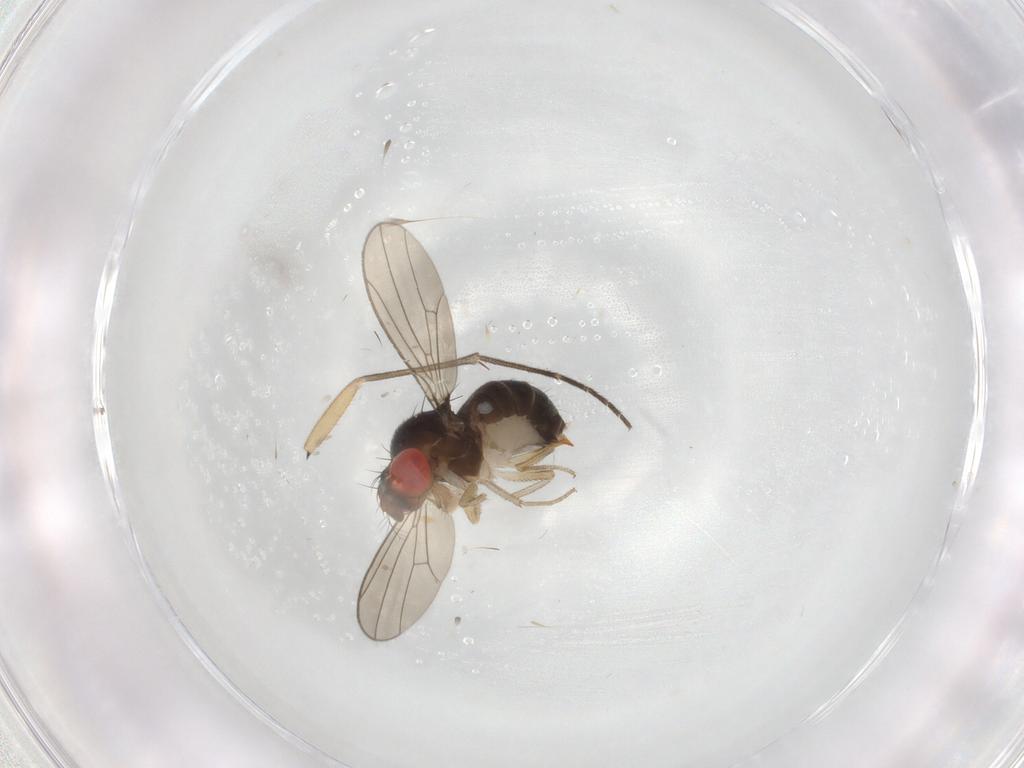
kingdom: Animalia
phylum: Arthropoda
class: Insecta
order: Diptera
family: Drosophilidae
